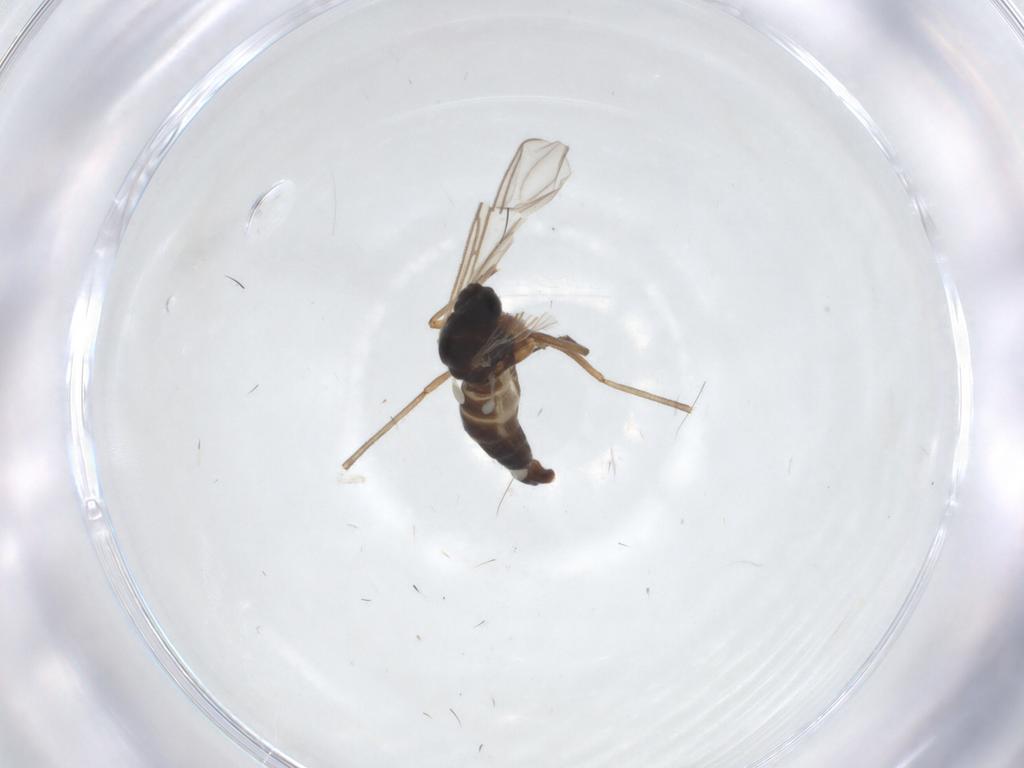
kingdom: Animalia
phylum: Arthropoda
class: Insecta
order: Diptera
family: Sciaridae
